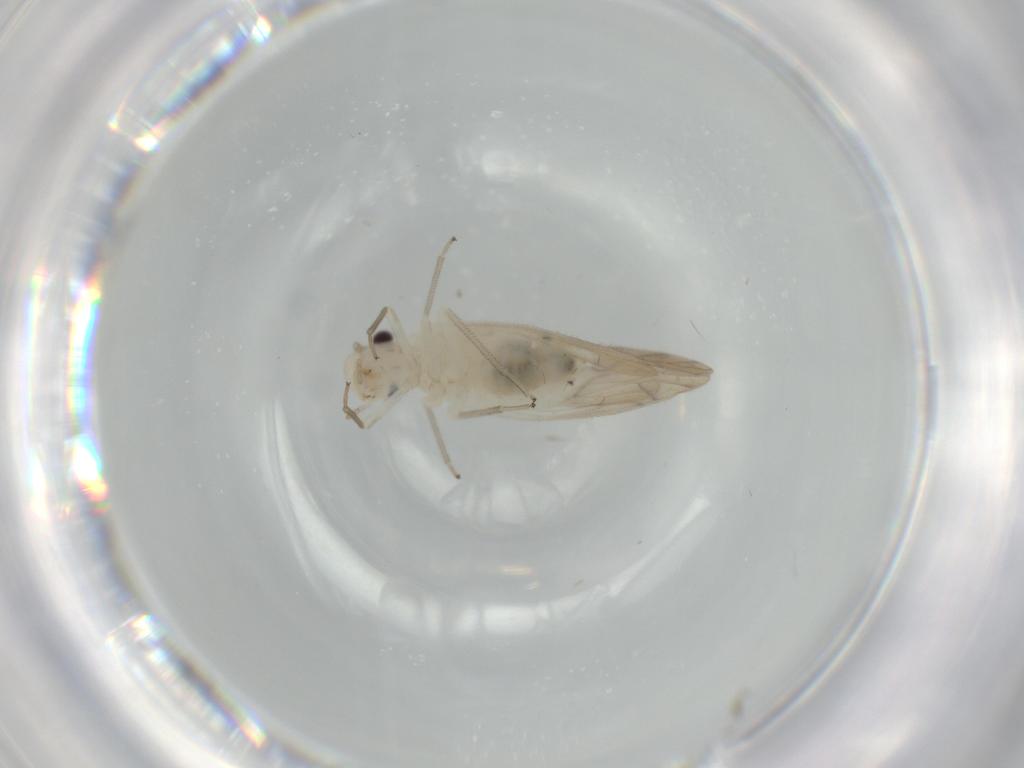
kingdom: Animalia
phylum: Arthropoda
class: Insecta
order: Psocodea
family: Caeciliusidae
